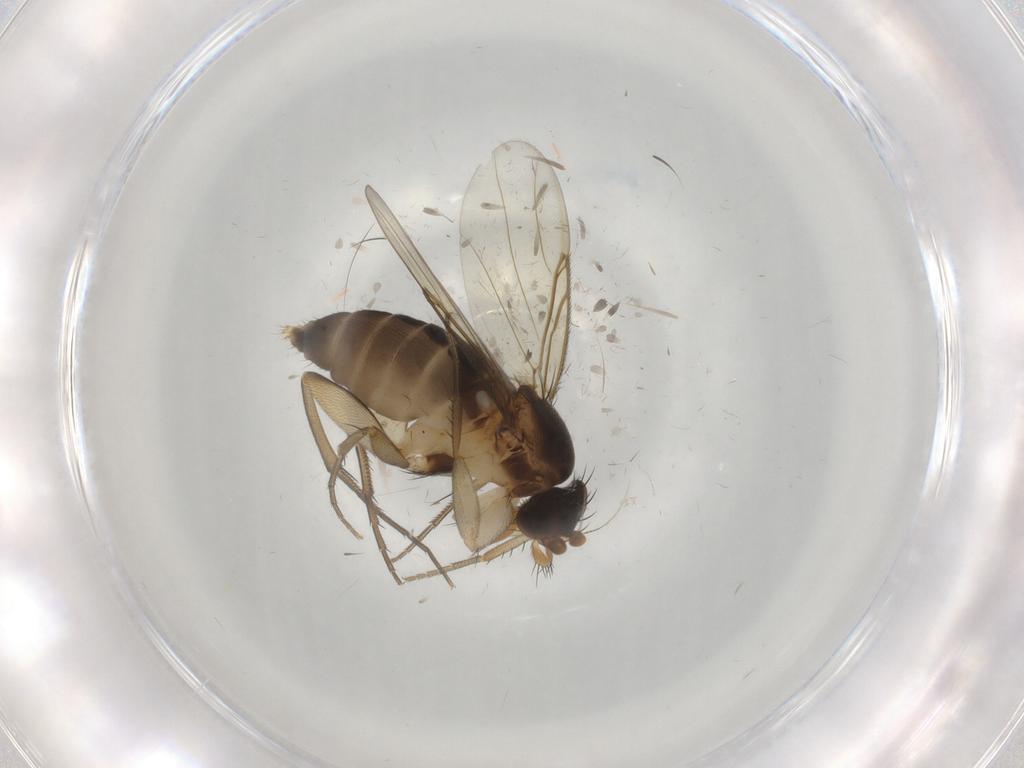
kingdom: Animalia
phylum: Arthropoda
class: Insecta
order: Diptera
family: Phoridae
